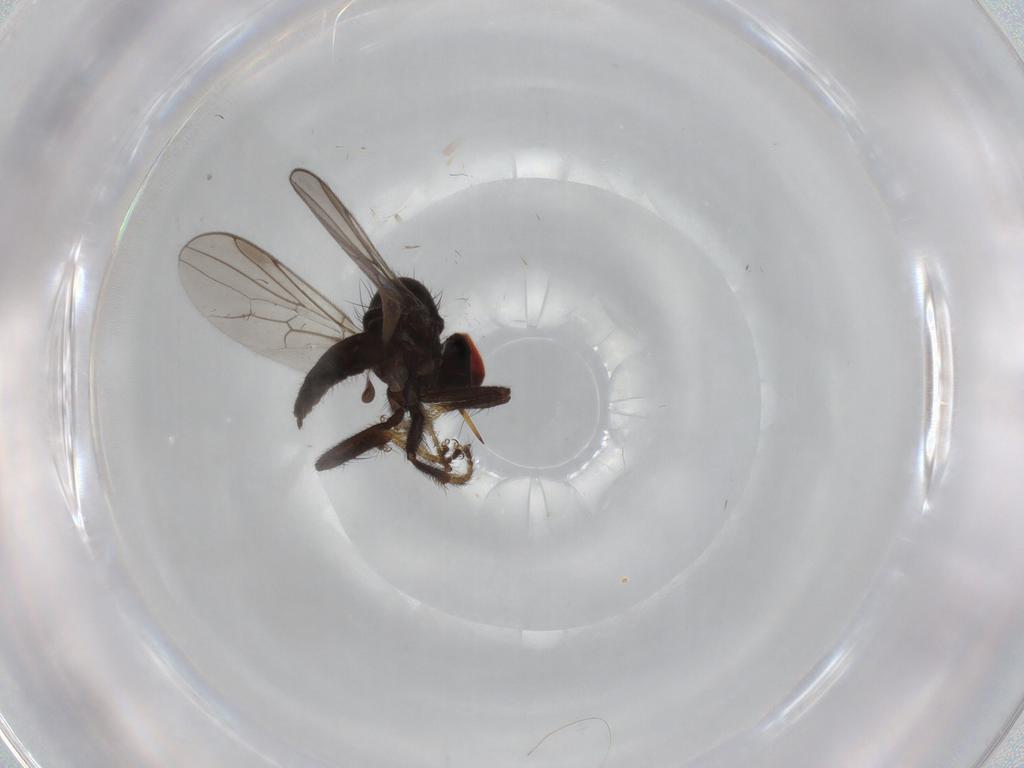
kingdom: Animalia
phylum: Arthropoda
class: Insecta
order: Diptera
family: Hybotidae
